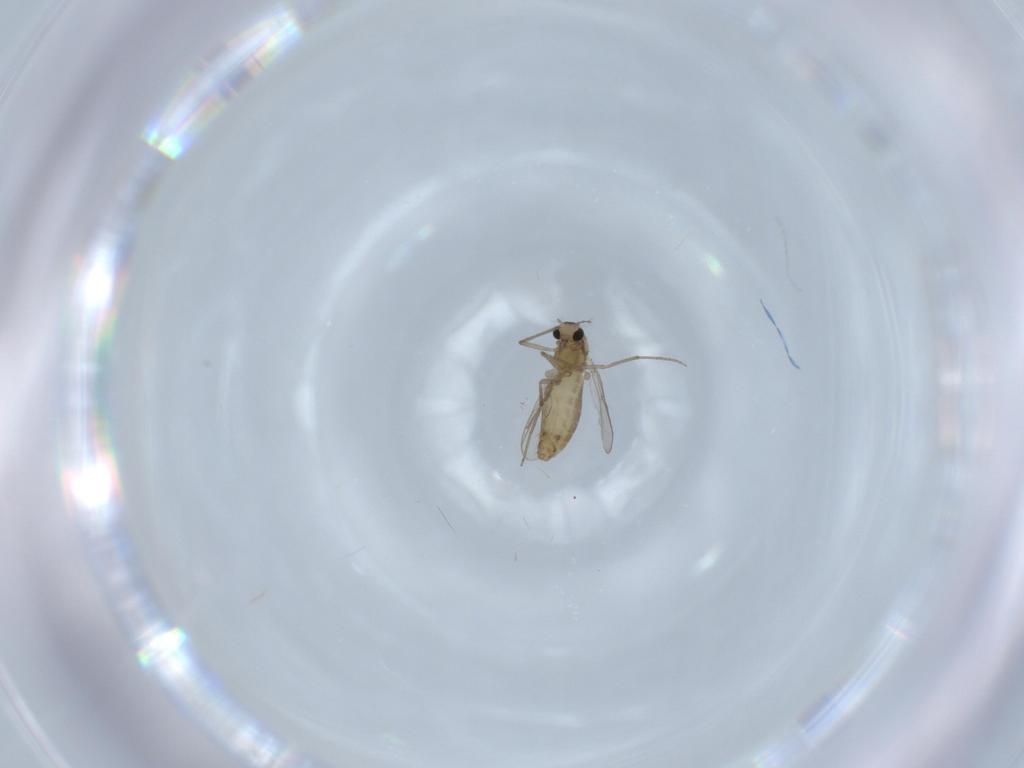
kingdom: Animalia
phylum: Arthropoda
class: Insecta
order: Diptera
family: Chironomidae
